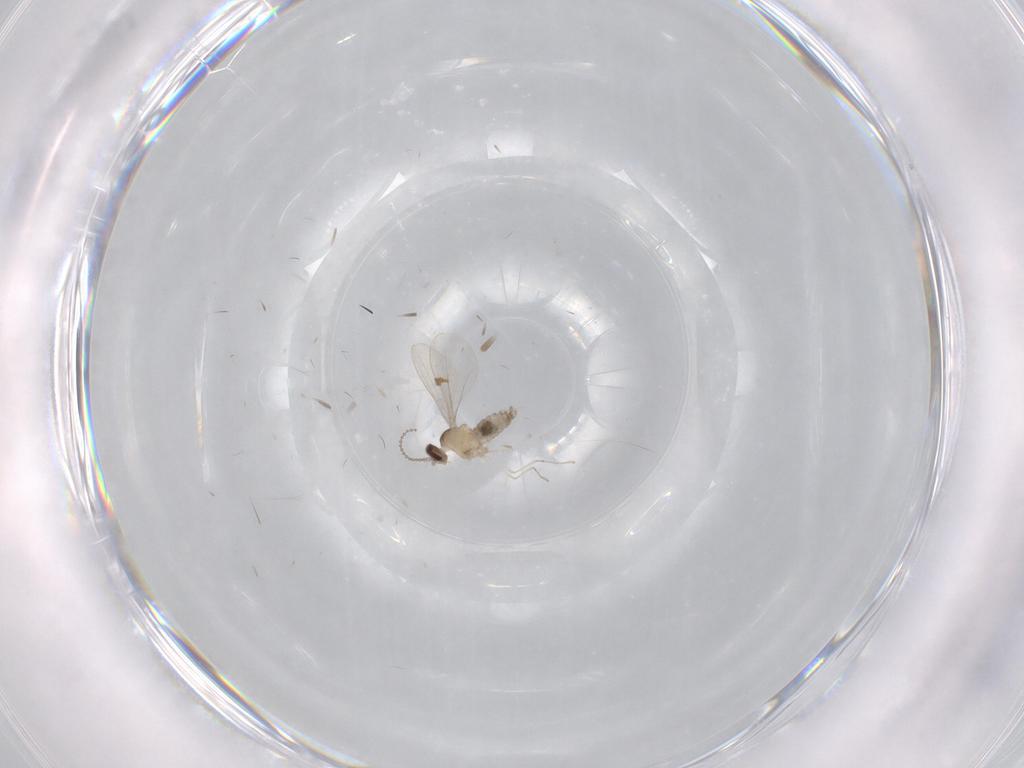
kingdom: Animalia
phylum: Arthropoda
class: Insecta
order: Diptera
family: Cecidomyiidae
